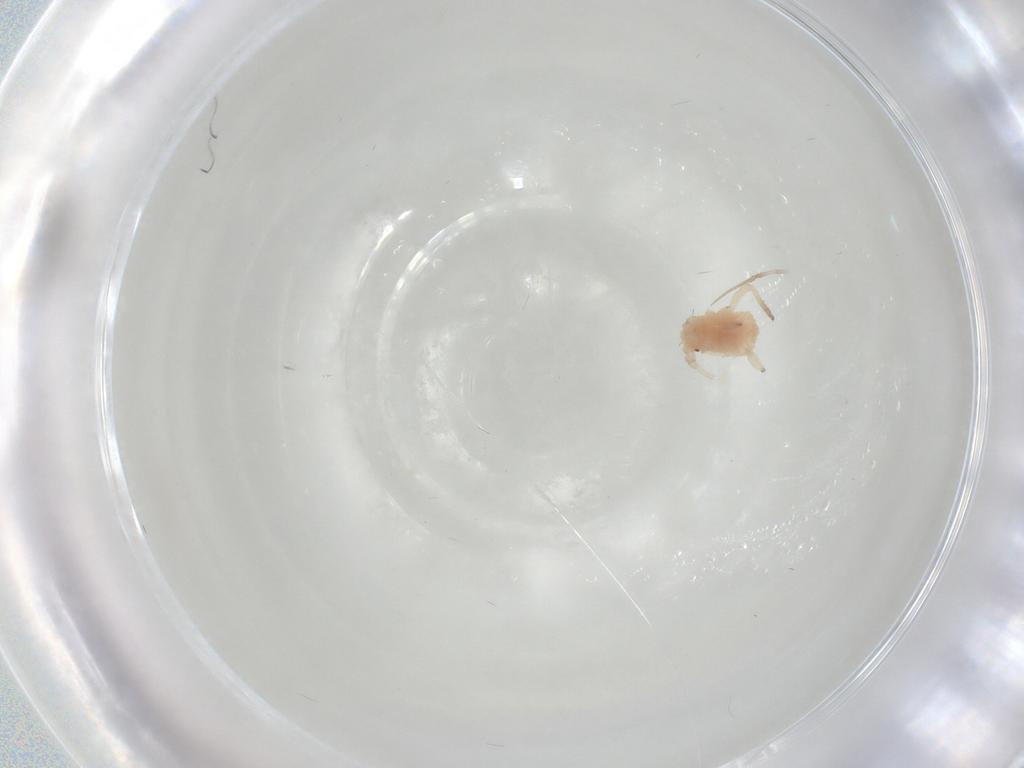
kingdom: Animalia
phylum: Arthropoda
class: Insecta
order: Hemiptera
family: Aphididae
